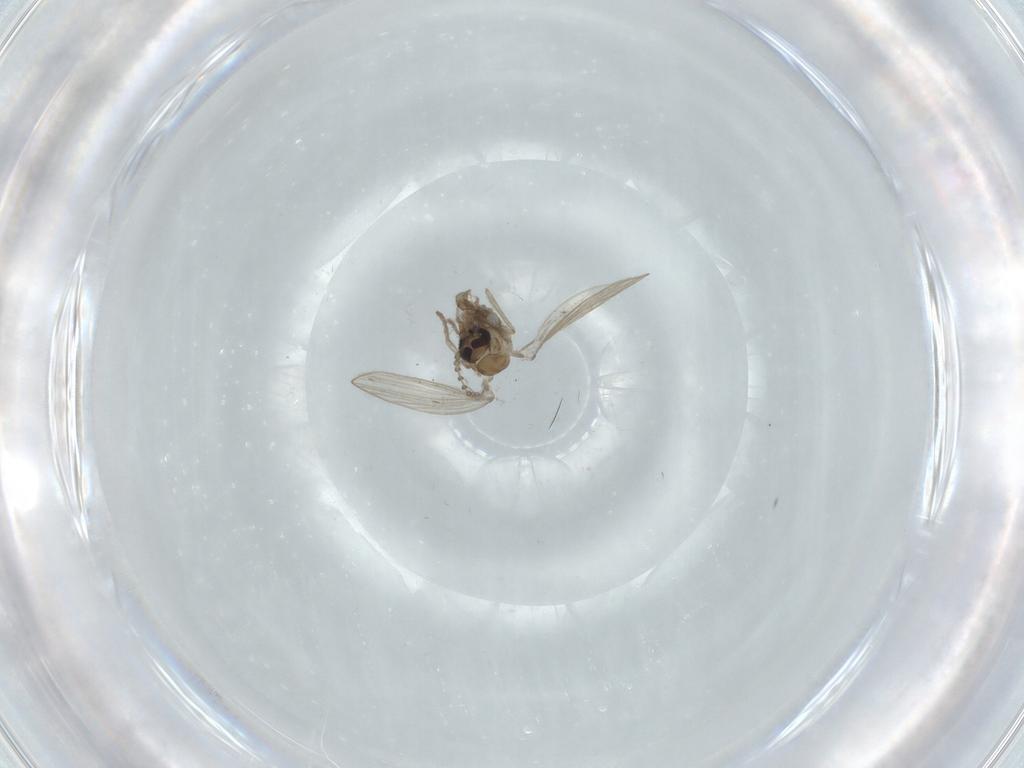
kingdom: Animalia
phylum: Arthropoda
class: Insecta
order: Diptera
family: Psychodidae
